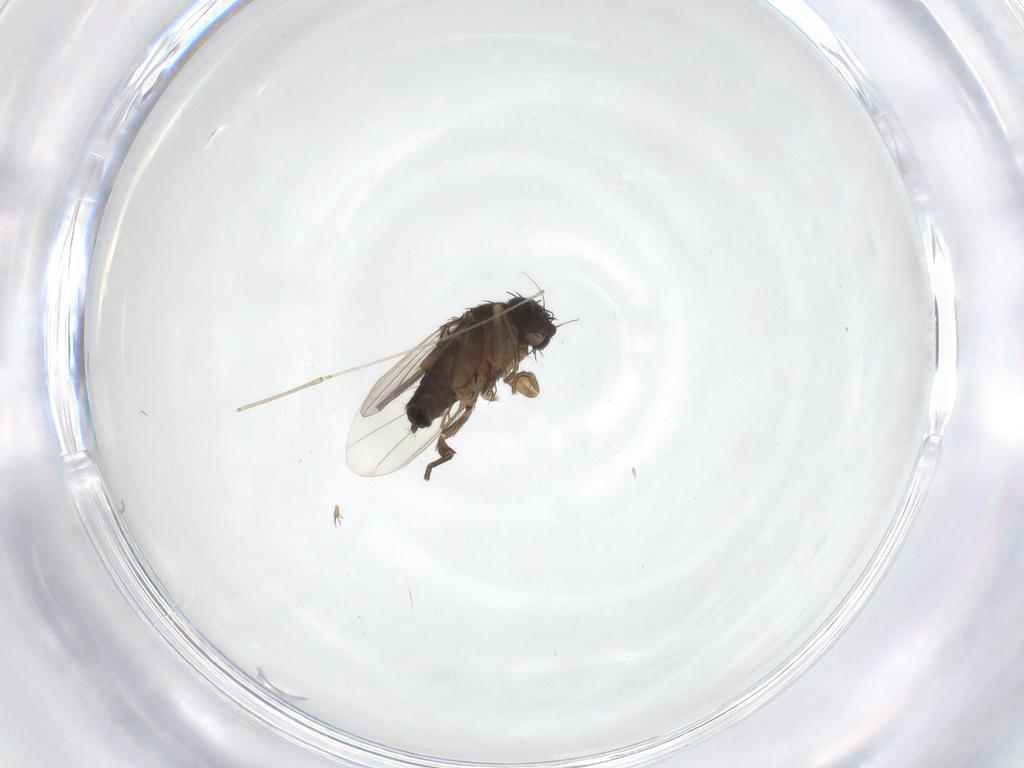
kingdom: Animalia
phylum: Arthropoda
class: Insecta
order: Diptera
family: Phoridae
